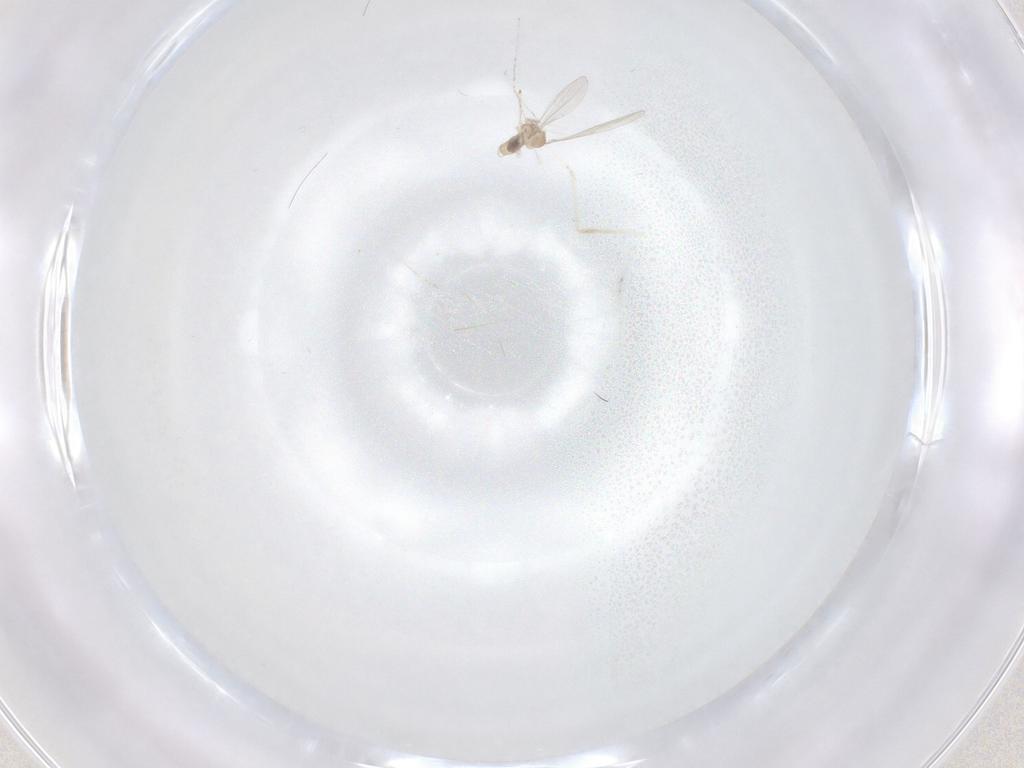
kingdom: Animalia
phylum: Arthropoda
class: Insecta
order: Diptera
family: Cecidomyiidae
